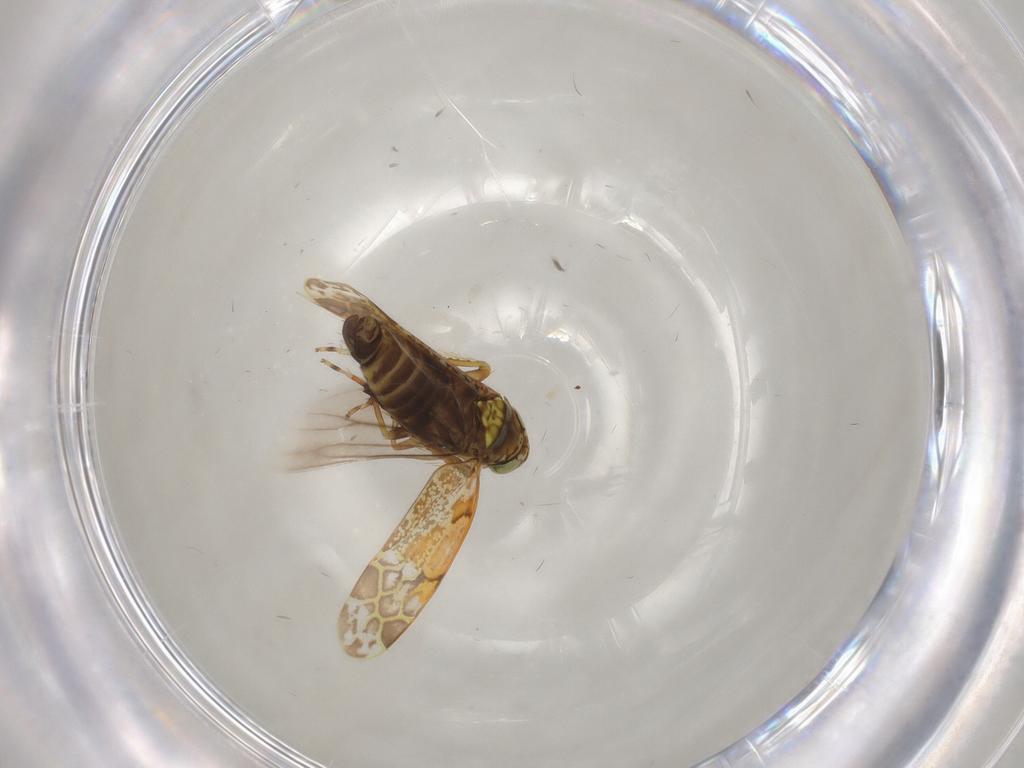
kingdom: Animalia
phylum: Arthropoda
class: Insecta
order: Hemiptera
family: Cicadellidae
